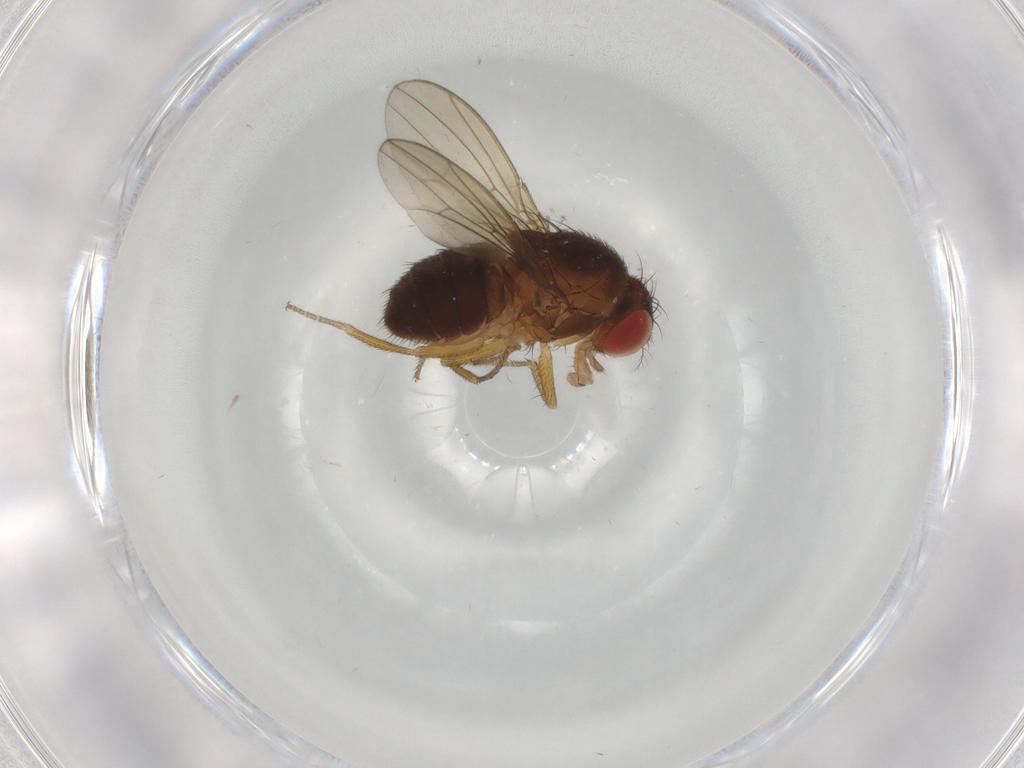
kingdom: Animalia
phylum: Arthropoda
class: Insecta
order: Diptera
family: Drosophilidae
